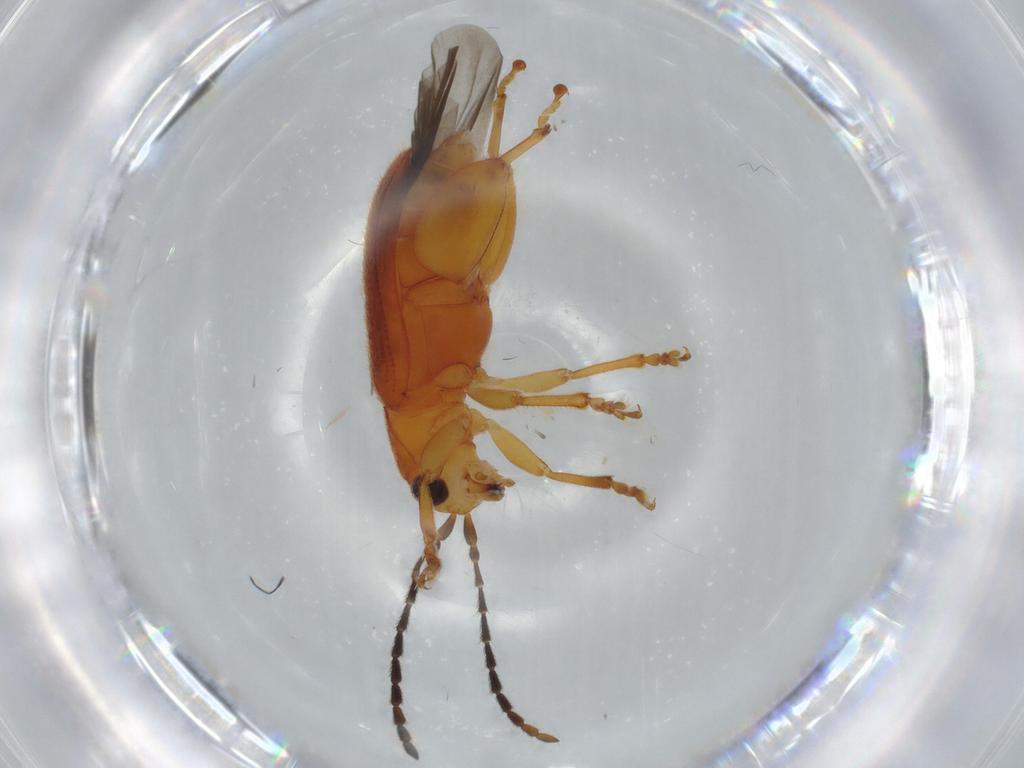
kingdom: Animalia
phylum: Arthropoda
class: Insecta
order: Coleoptera
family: Chrysomelidae
